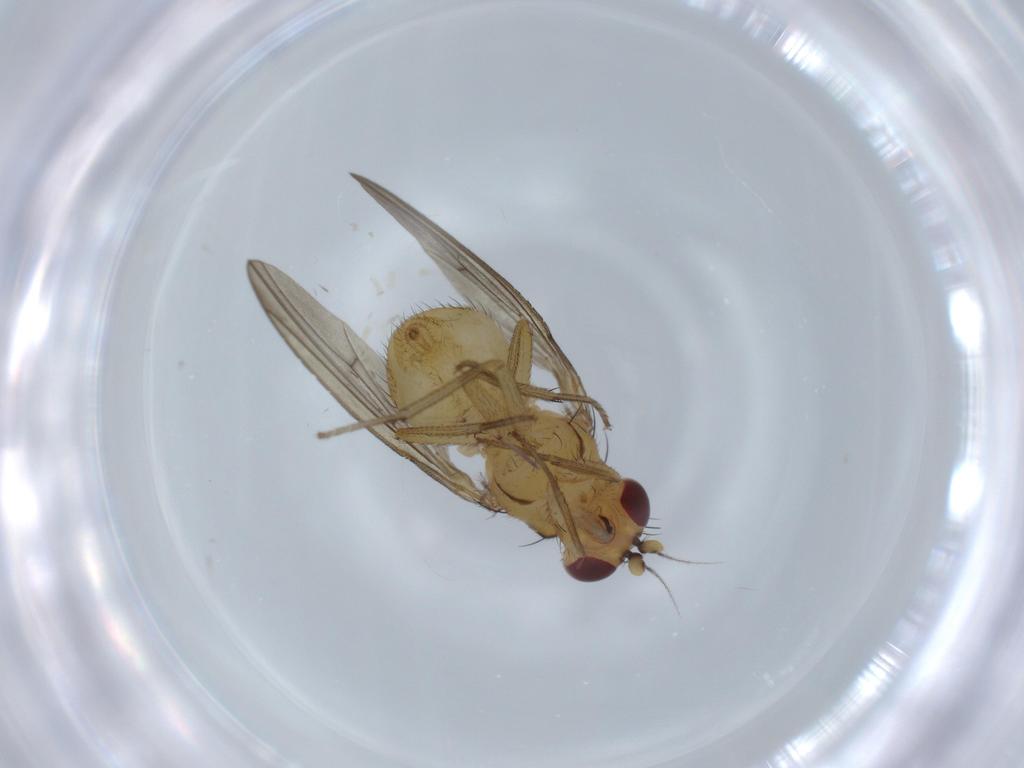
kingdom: Animalia
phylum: Arthropoda
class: Insecta
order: Diptera
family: Lauxaniidae
